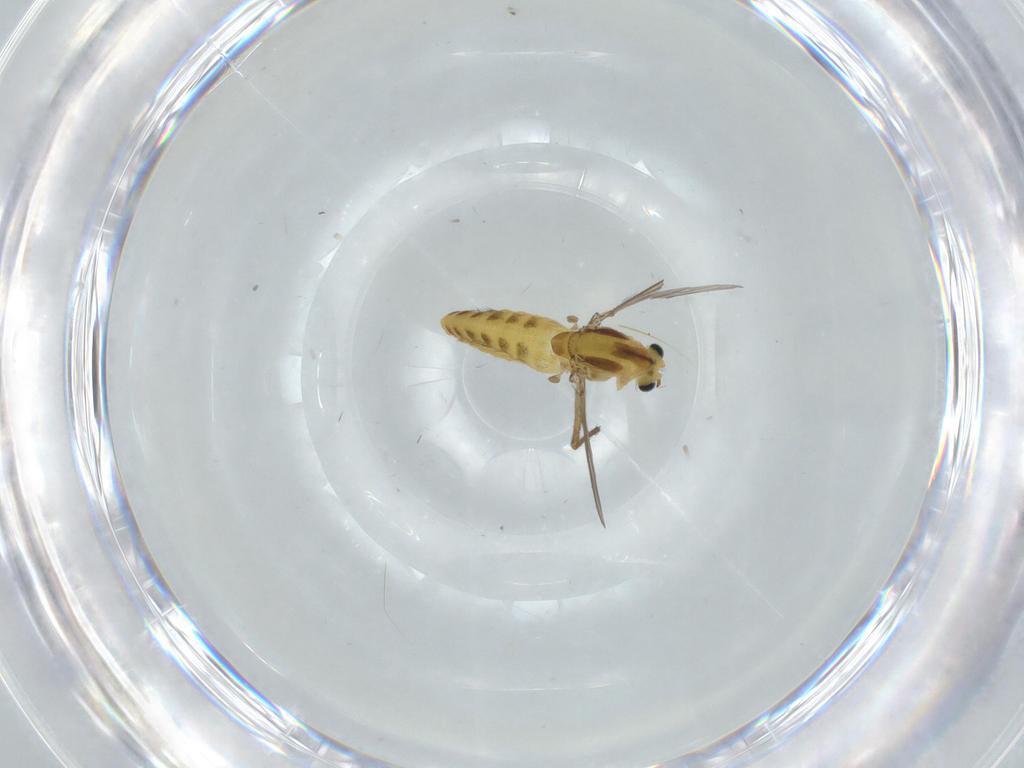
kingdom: Animalia
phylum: Arthropoda
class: Insecta
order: Diptera
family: Chironomidae
